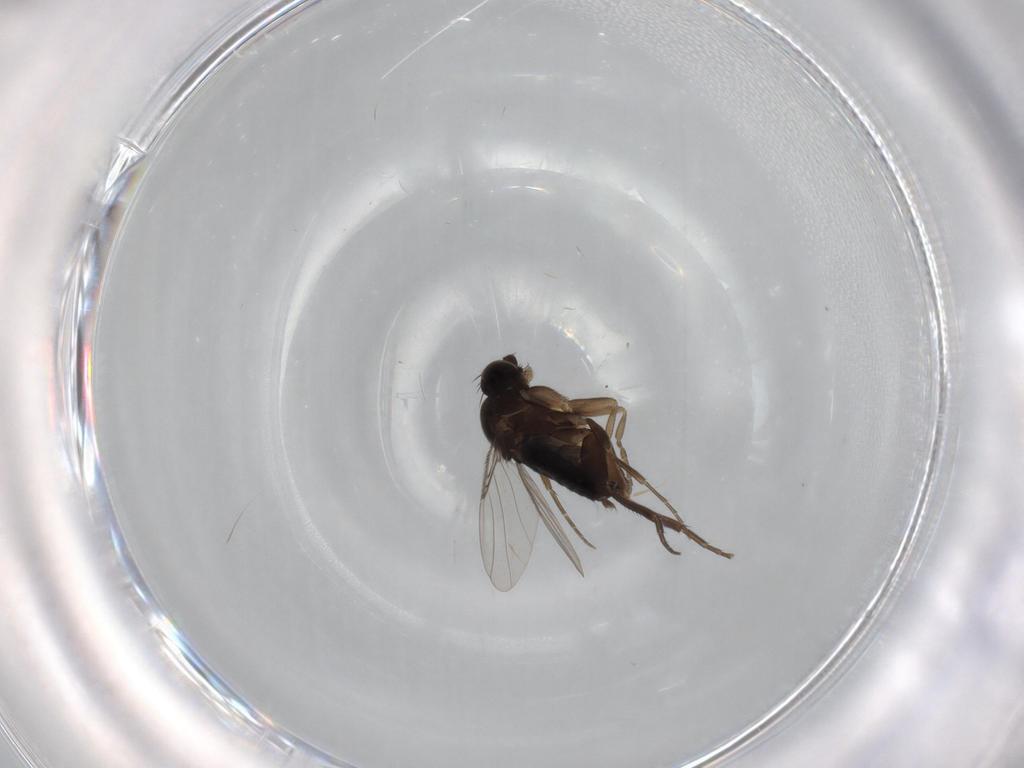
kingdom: Animalia
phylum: Arthropoda
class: Insecta
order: Diptera
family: Phoridae
